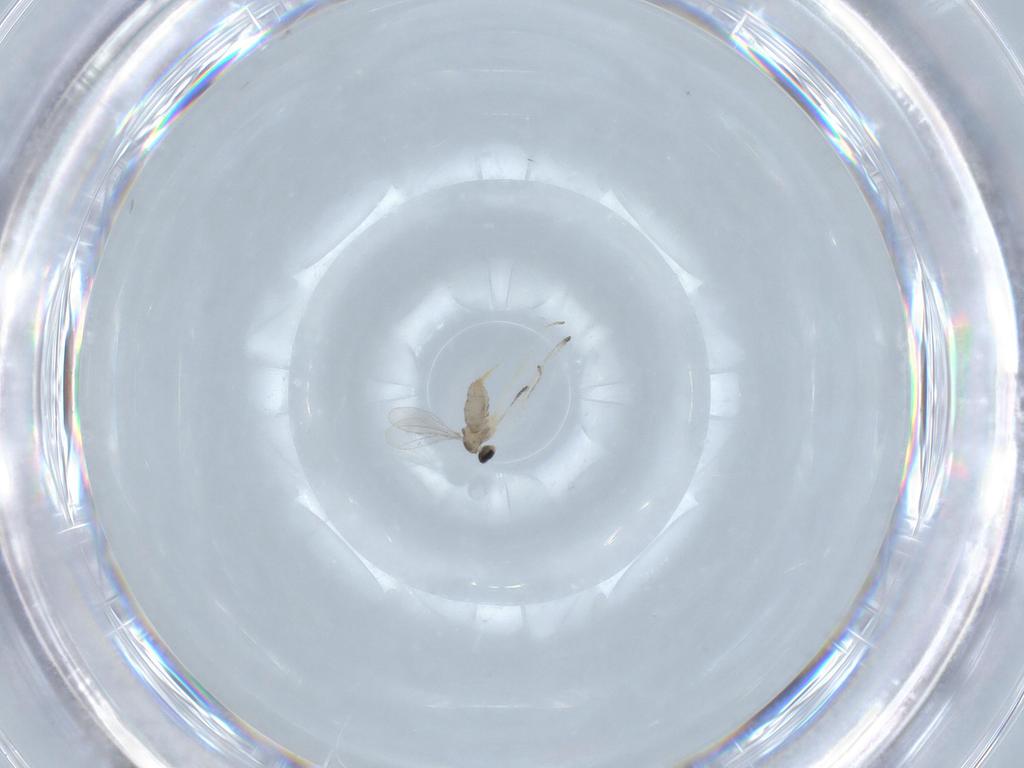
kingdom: Animalia
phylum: Arthropoda
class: Insecta
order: Diptera
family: Cecidomyiidae
